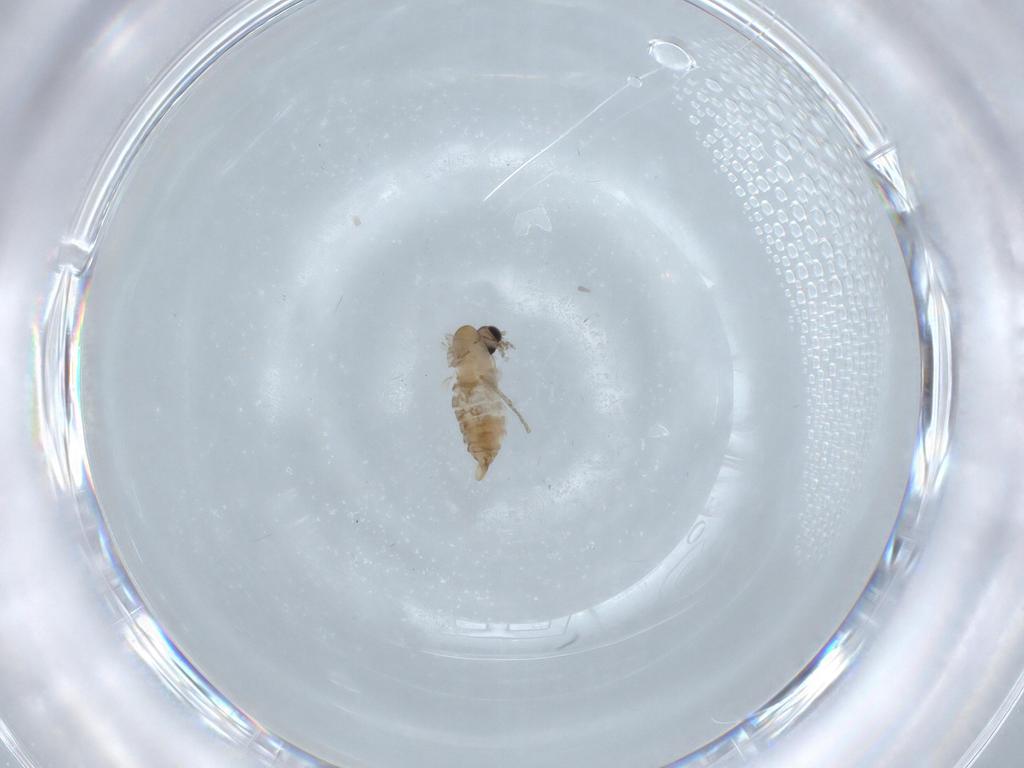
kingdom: Animalia
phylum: Arthropoda
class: Insecta
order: Diptera
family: Psychodidae
